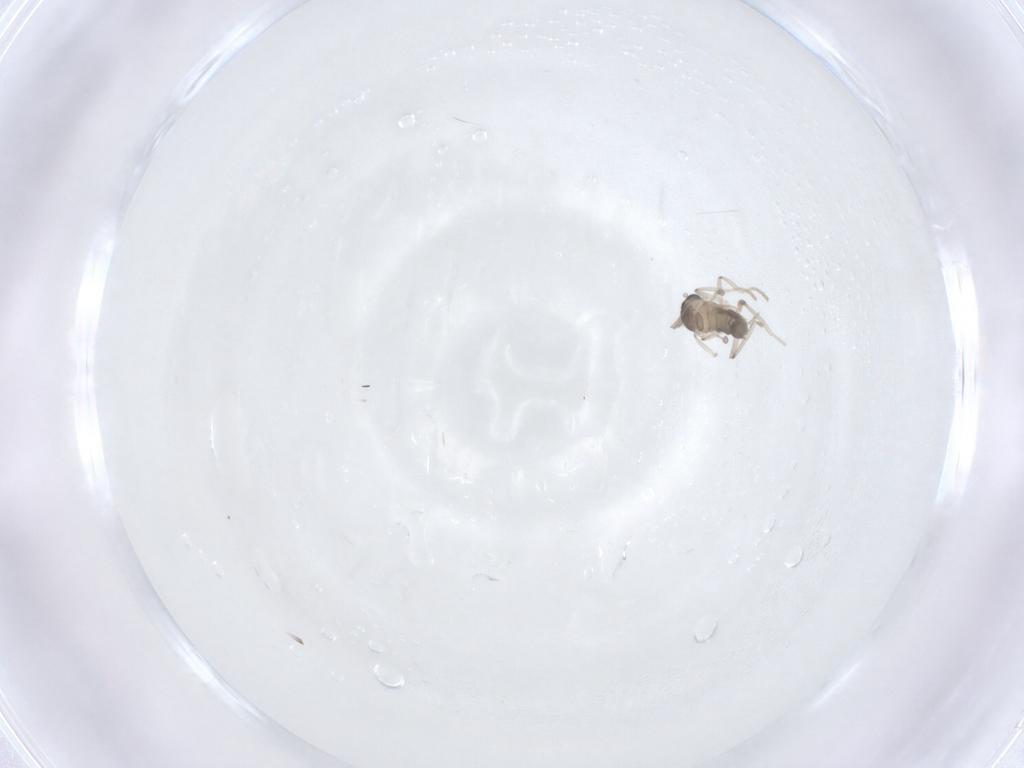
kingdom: Animalia
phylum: Arthropoda
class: Insecta
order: Diptera
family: Cecidomyiidae
